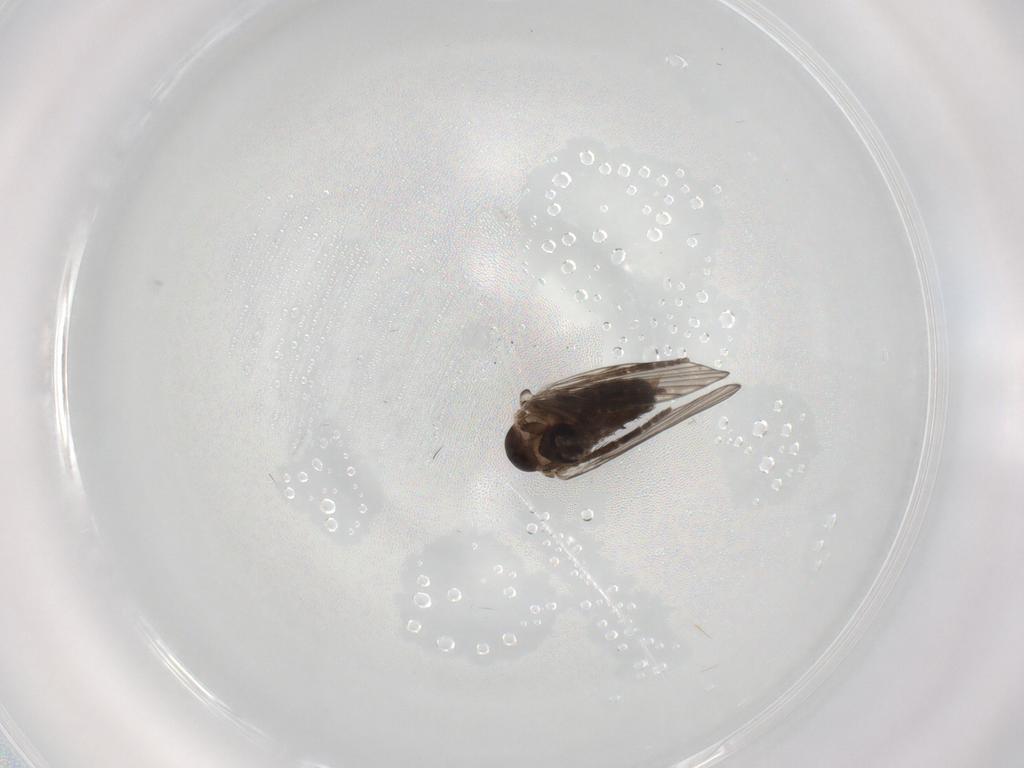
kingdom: Animalia
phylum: Arthropoda
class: Insecta
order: Diptera
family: Psychodidae
